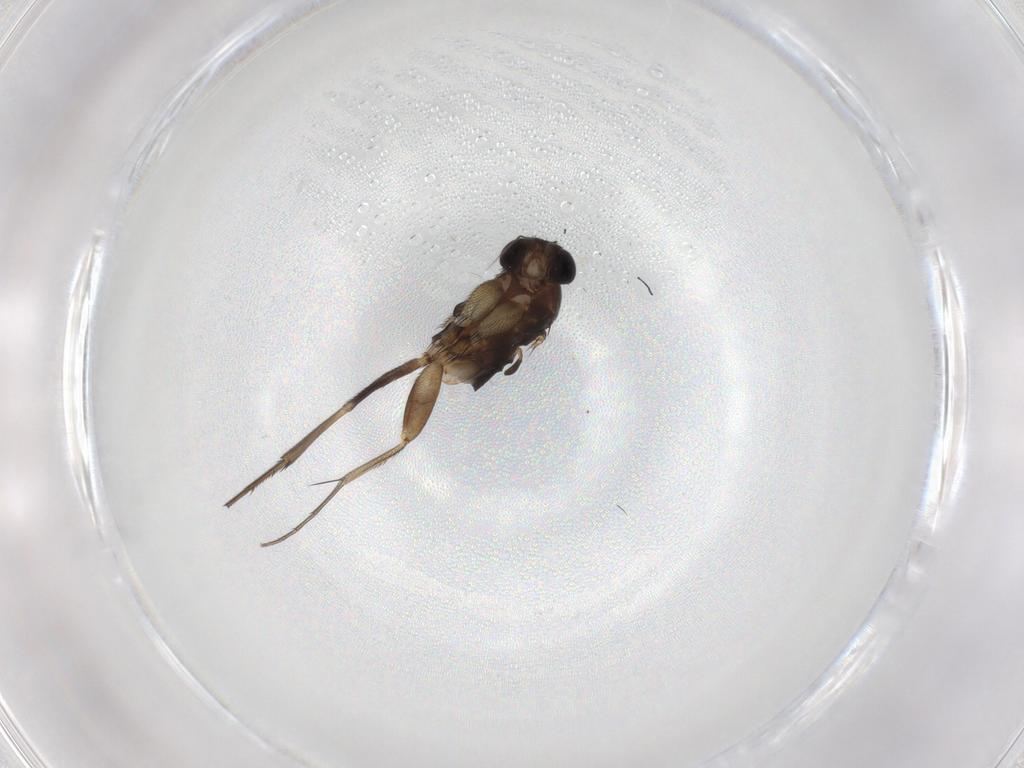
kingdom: Animalia
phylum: Arthropoda
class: Insecta
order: Diptera
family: Phoridae
